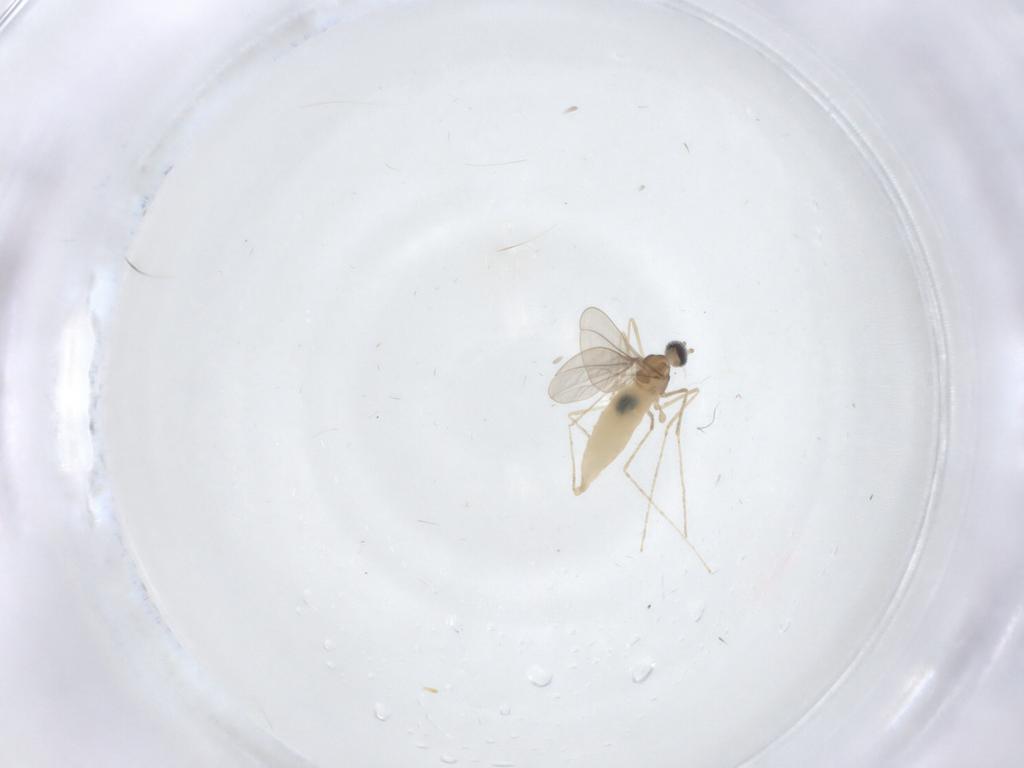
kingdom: Animalia
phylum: Arthropoda
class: Insecta
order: Diptera
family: Cecidomyiidae
